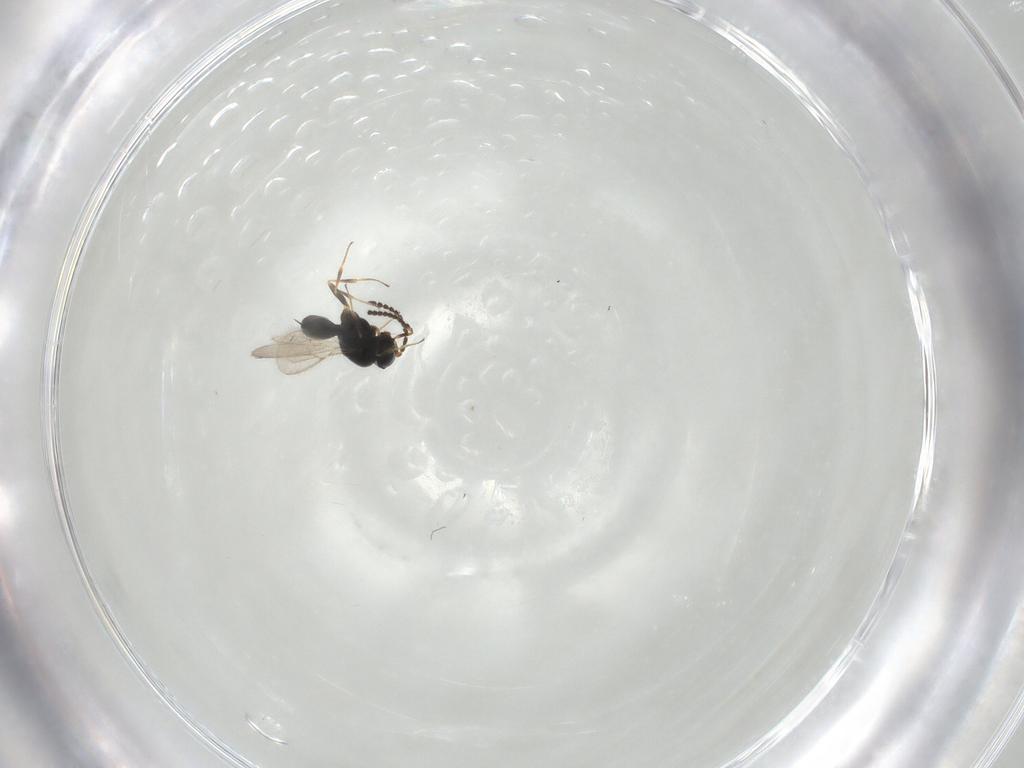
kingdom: Animalia
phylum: Arthropoda
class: Insecta
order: Hymenoptera
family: Scelionidae
